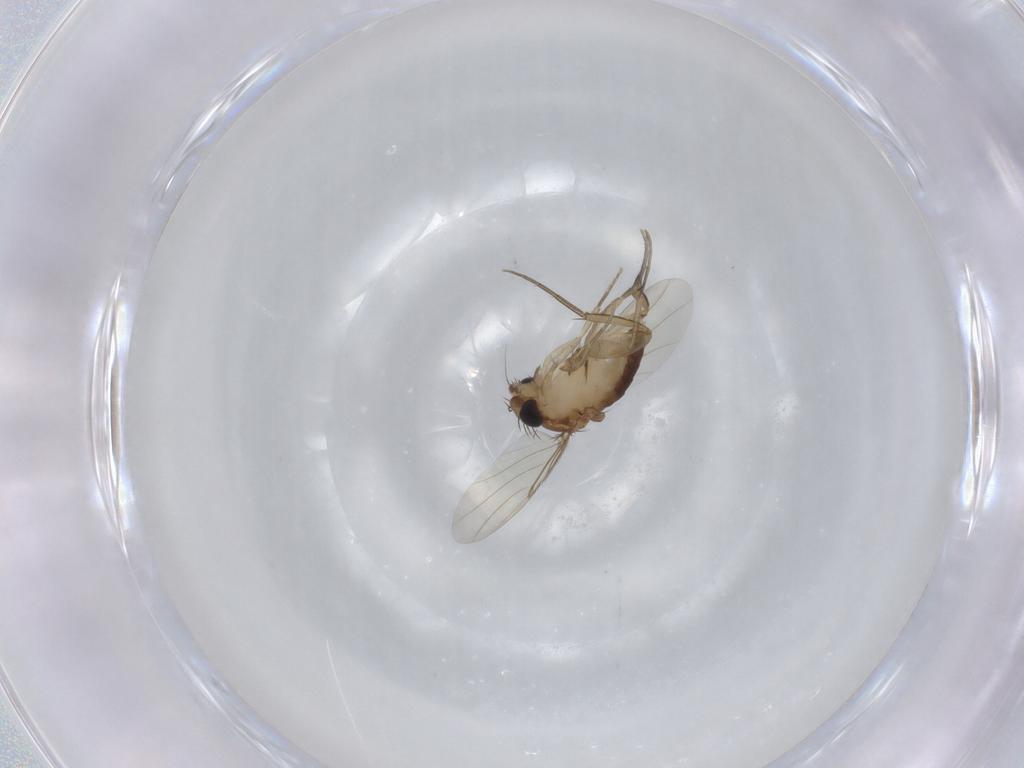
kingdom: Animalia
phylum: Arthropoda
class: Insecta
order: Diptera
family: Phoridae
